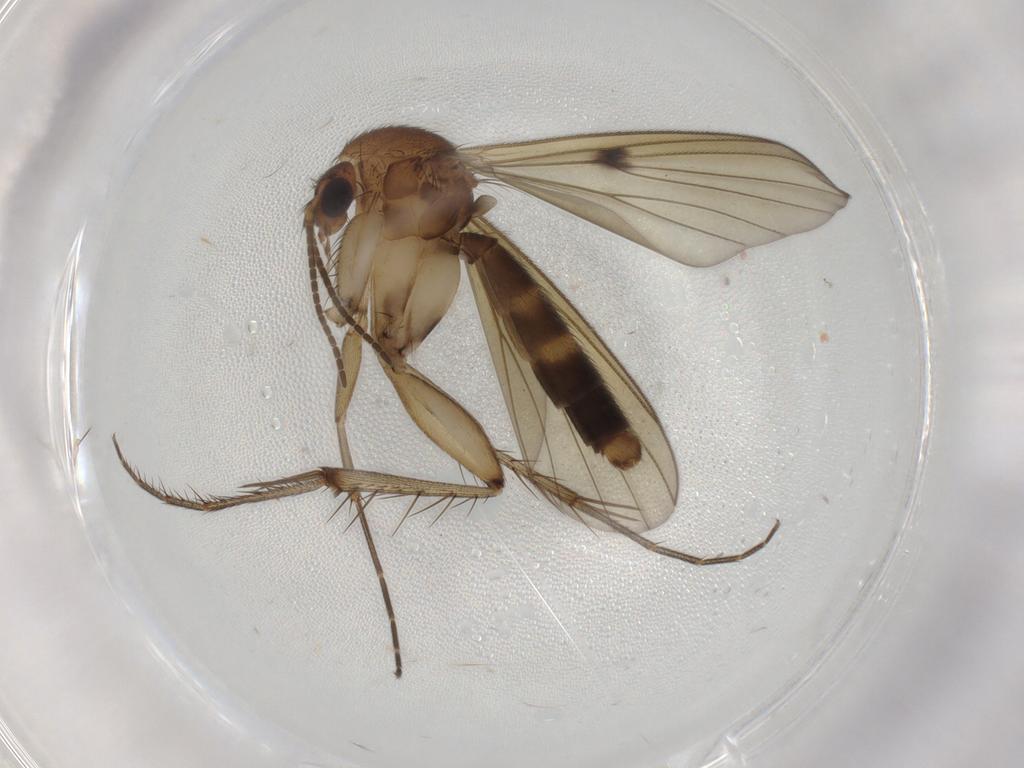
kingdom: Animalia
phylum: Arthropoda
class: Insecta
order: Diptera
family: Mycetophilidae
